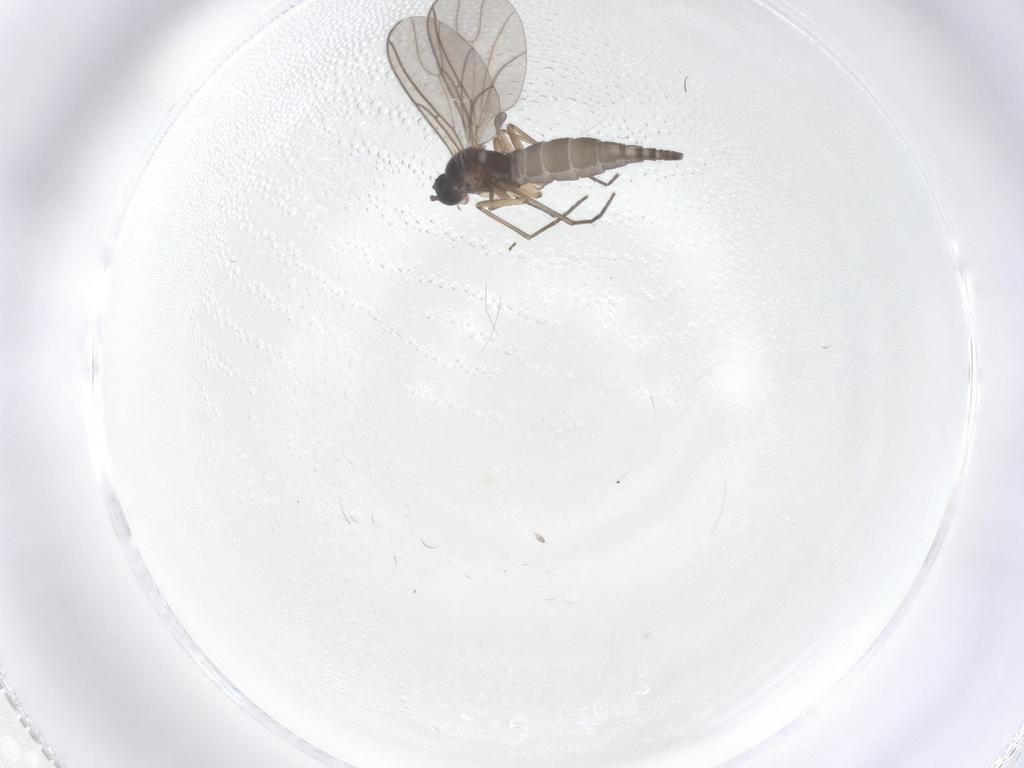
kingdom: Animalia
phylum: Arthropoda
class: Insecta
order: Diptera
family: Sciaridae
